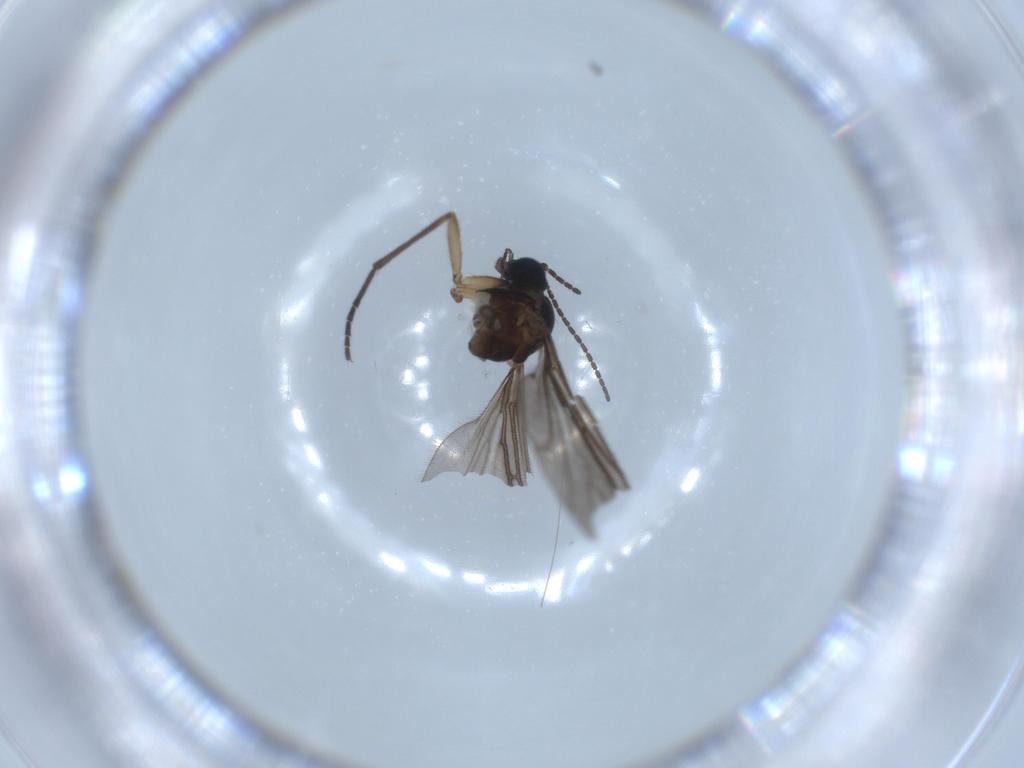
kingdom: Animalia
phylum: Arthropoda
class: Insecta
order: Diptera
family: Sciaridae
